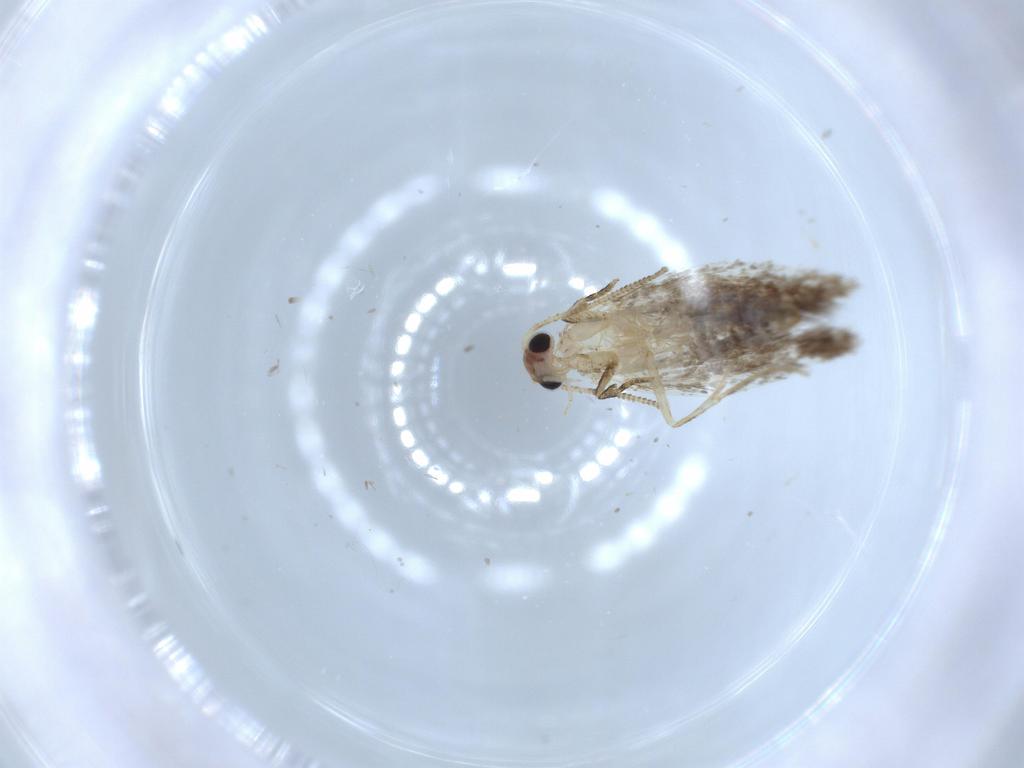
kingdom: Animalia
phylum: Arthropoda
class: Insecta
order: Lepidoptera
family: Tineidae
